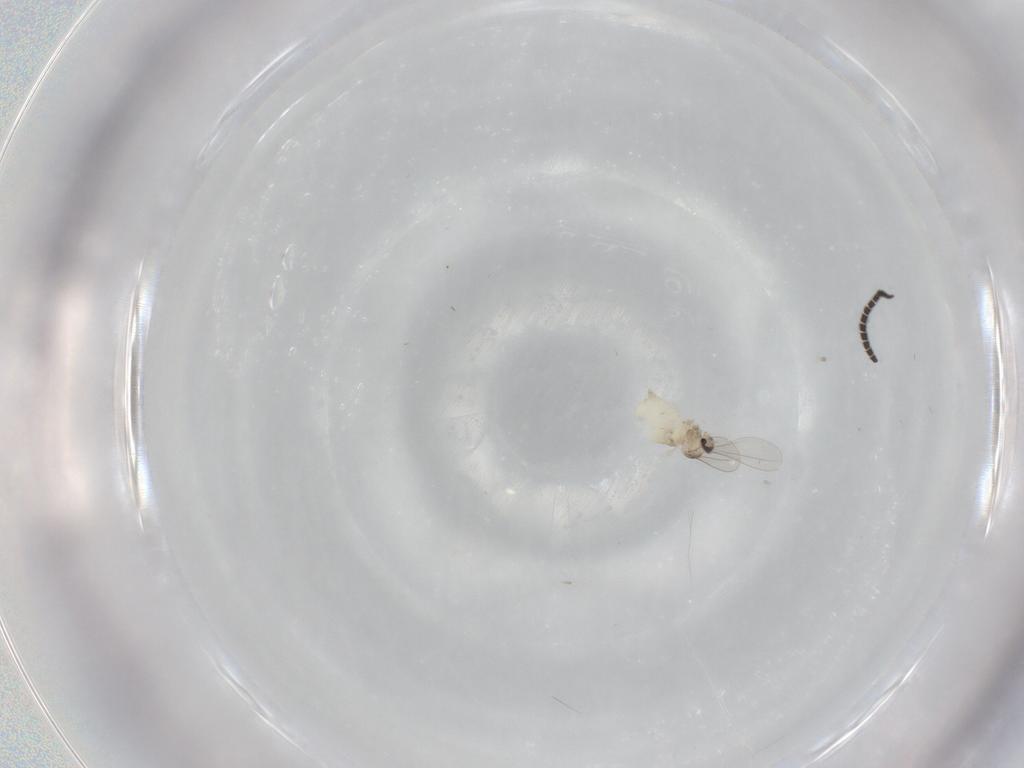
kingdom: Animalia
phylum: Arthropoda
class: Insecta
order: Diptera
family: Cecidomyiidae
